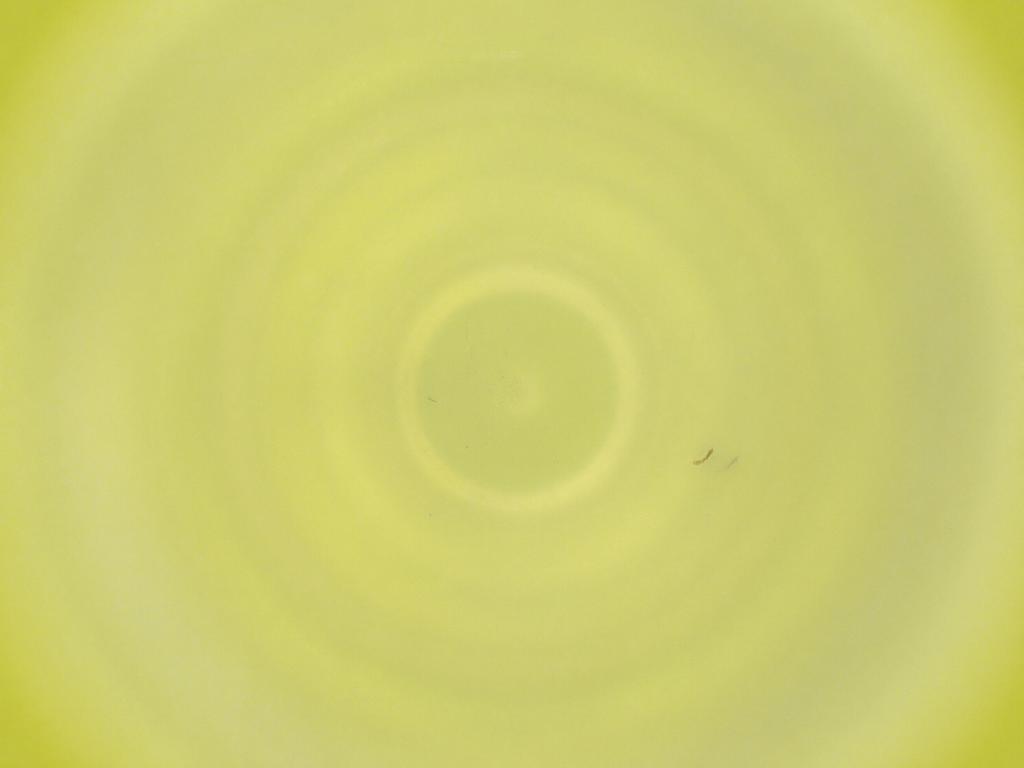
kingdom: Animalia
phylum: Arthropoda
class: Insecta
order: Diptera
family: Cecidomyiidae
